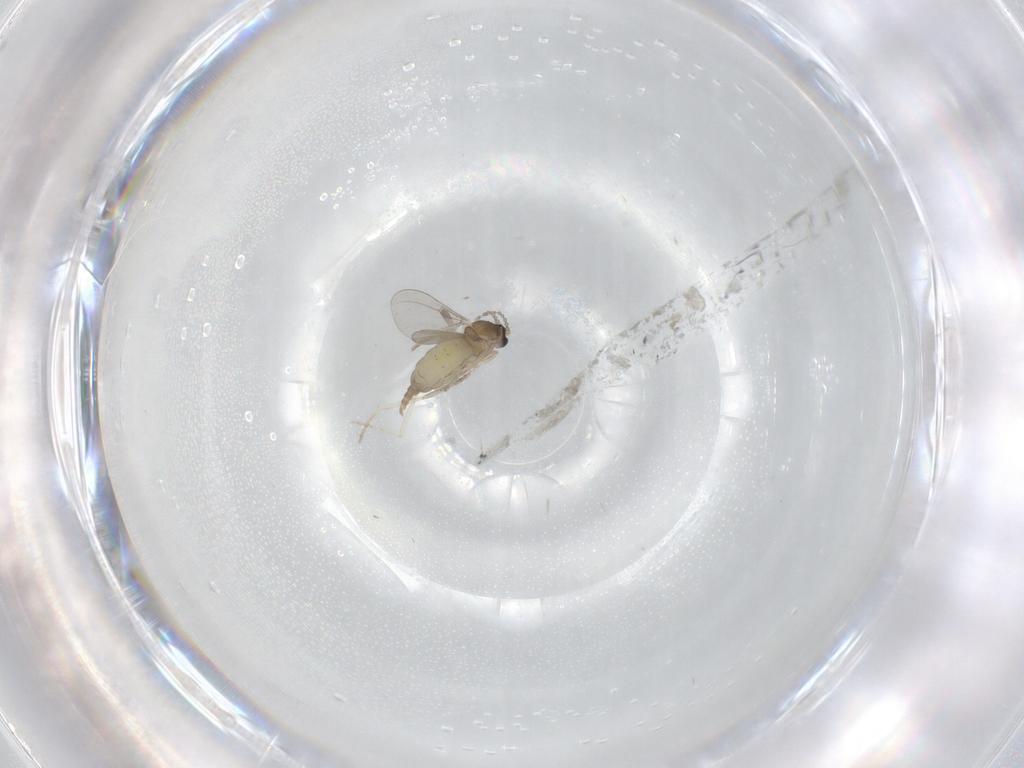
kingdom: Animalia
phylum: Arthropoda
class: Insecta
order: Diptera
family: Cecidomyiidae
